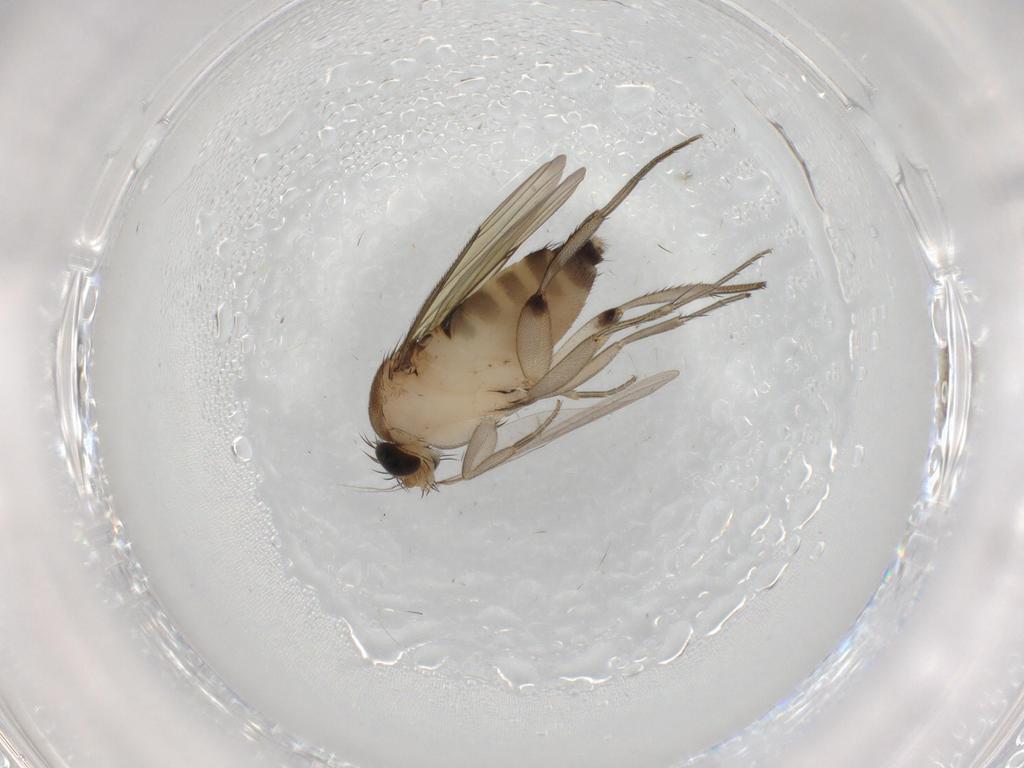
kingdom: Animalia
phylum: Arthropoda
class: Insecta
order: Diptera
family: Phoridae
